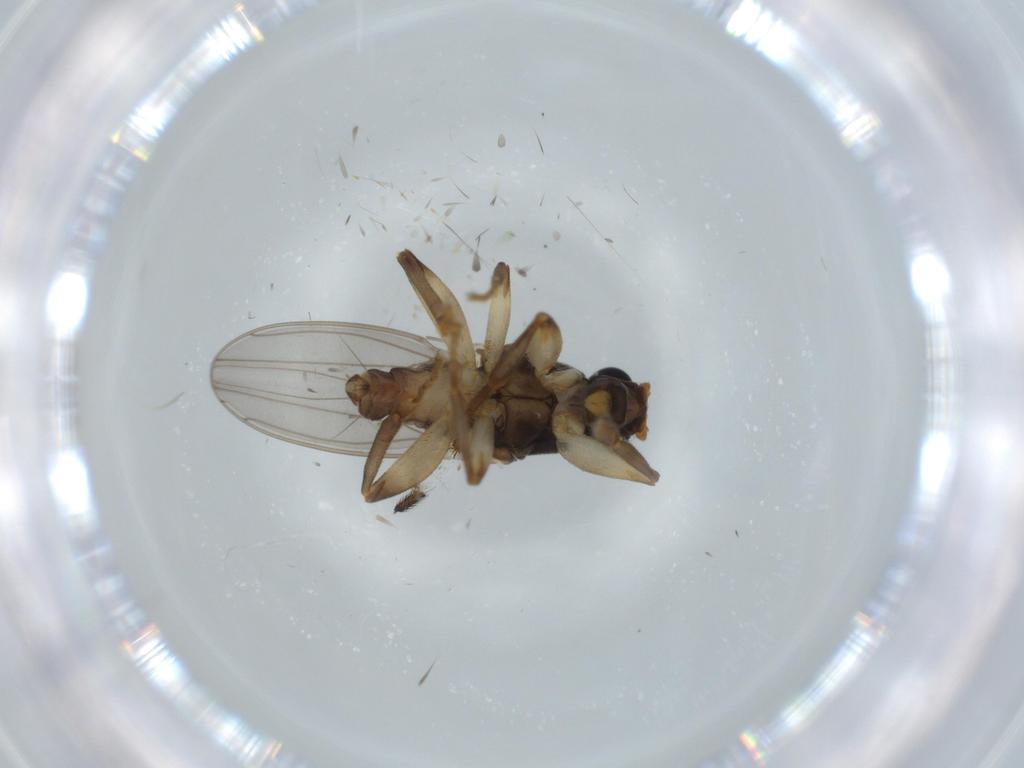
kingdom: Animalia
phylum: Arthropoda
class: Insecta
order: Diptera
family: Sphaeroceridae
